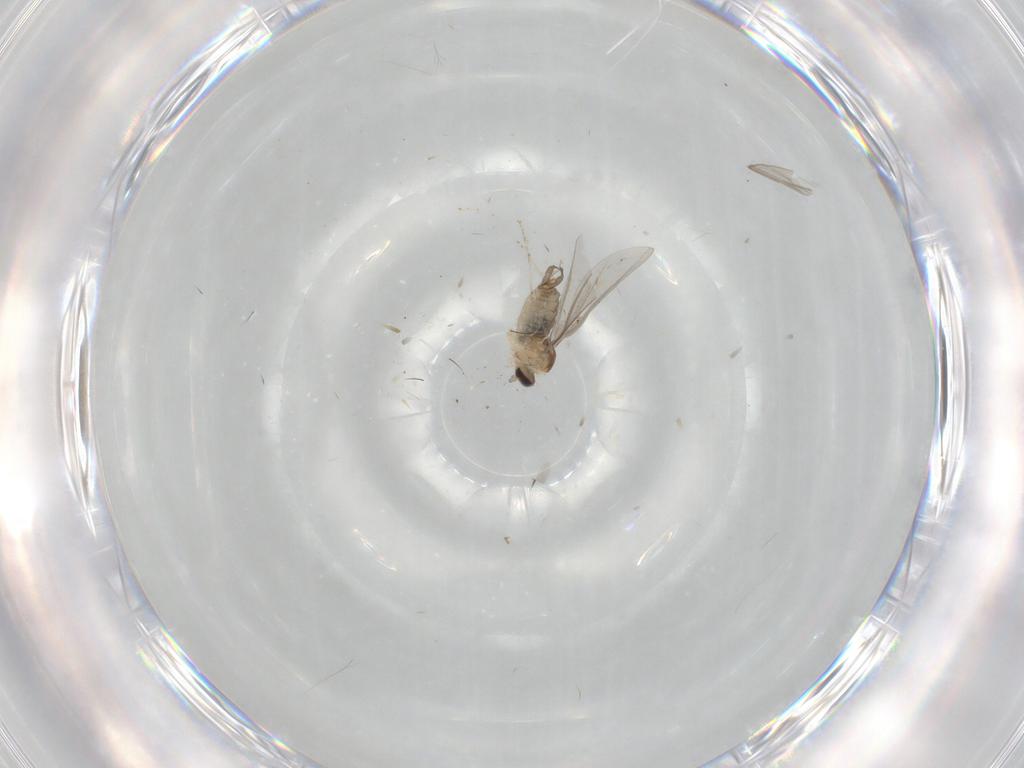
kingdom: Animalia
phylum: Arthropoda
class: Insecta
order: Diptera
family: Cecidomyiidae
